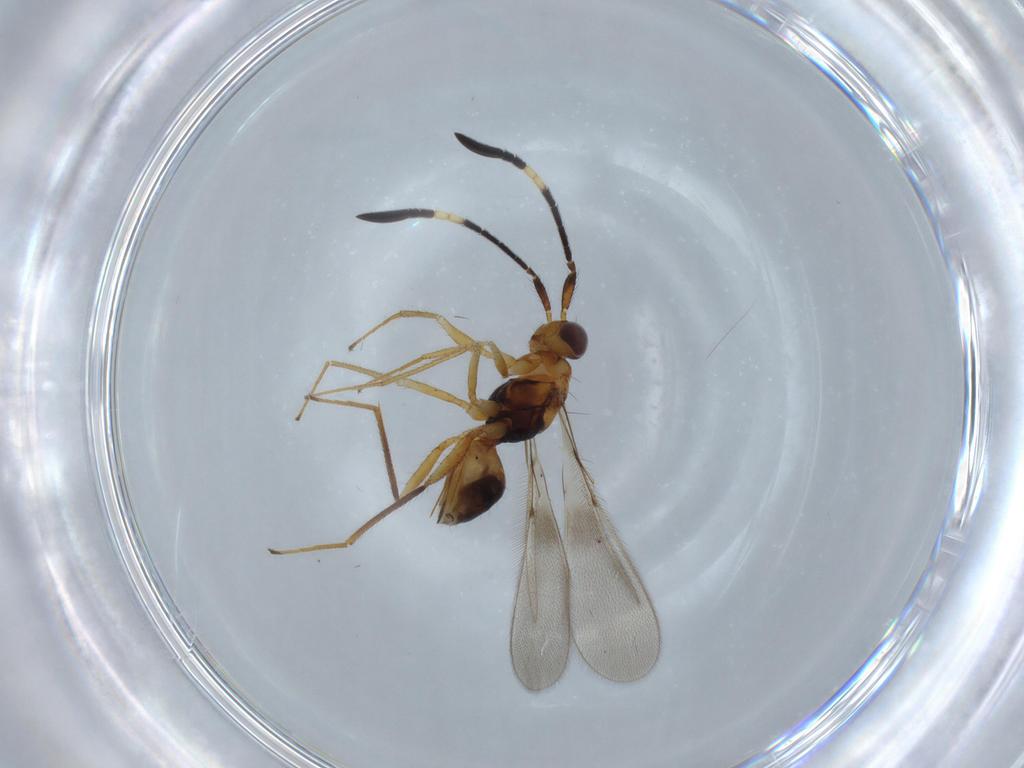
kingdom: Animalia
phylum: Arthropoda
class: Insecta
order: Hymenoptera
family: Mymaridae
